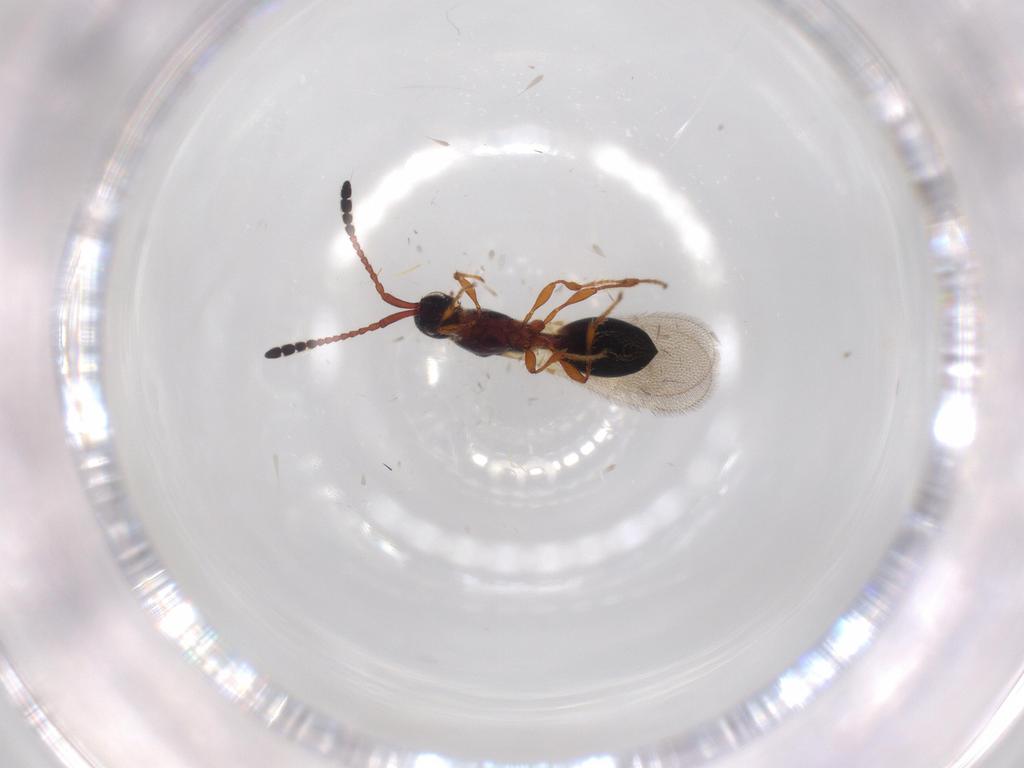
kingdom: Animalia
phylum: Arthropoda
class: Insecta
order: Hymenoptera
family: Diapriidae
